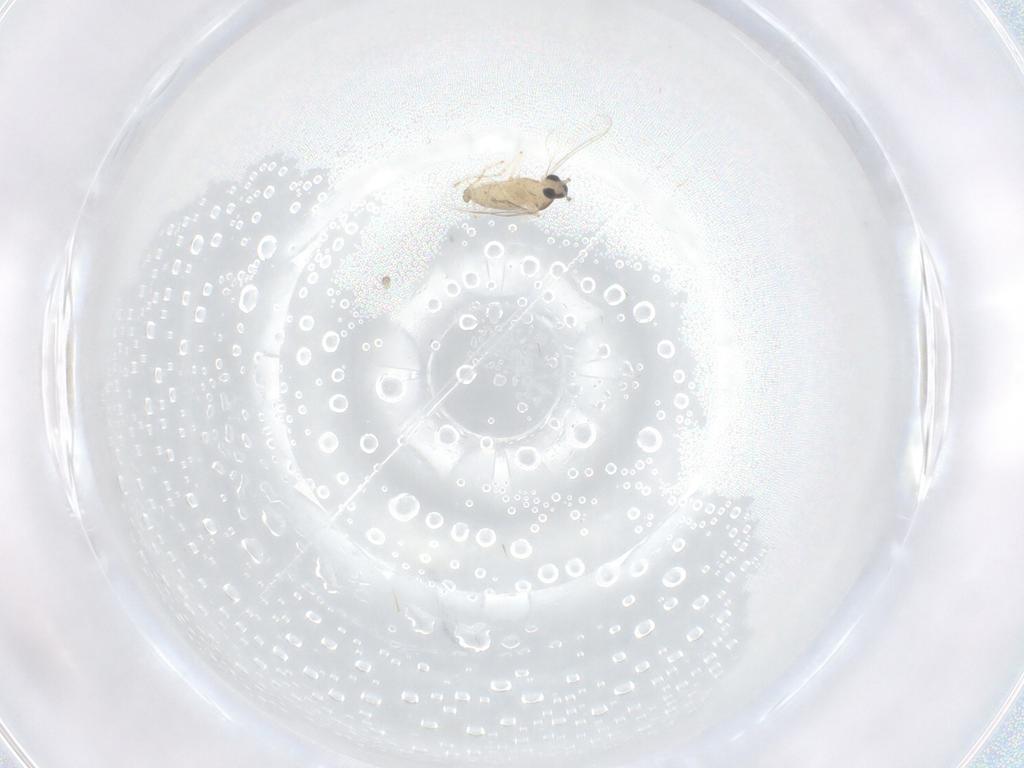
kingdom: Animalia
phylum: Arthropoda
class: Insecta
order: Diptera
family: Cecidomyiidae
